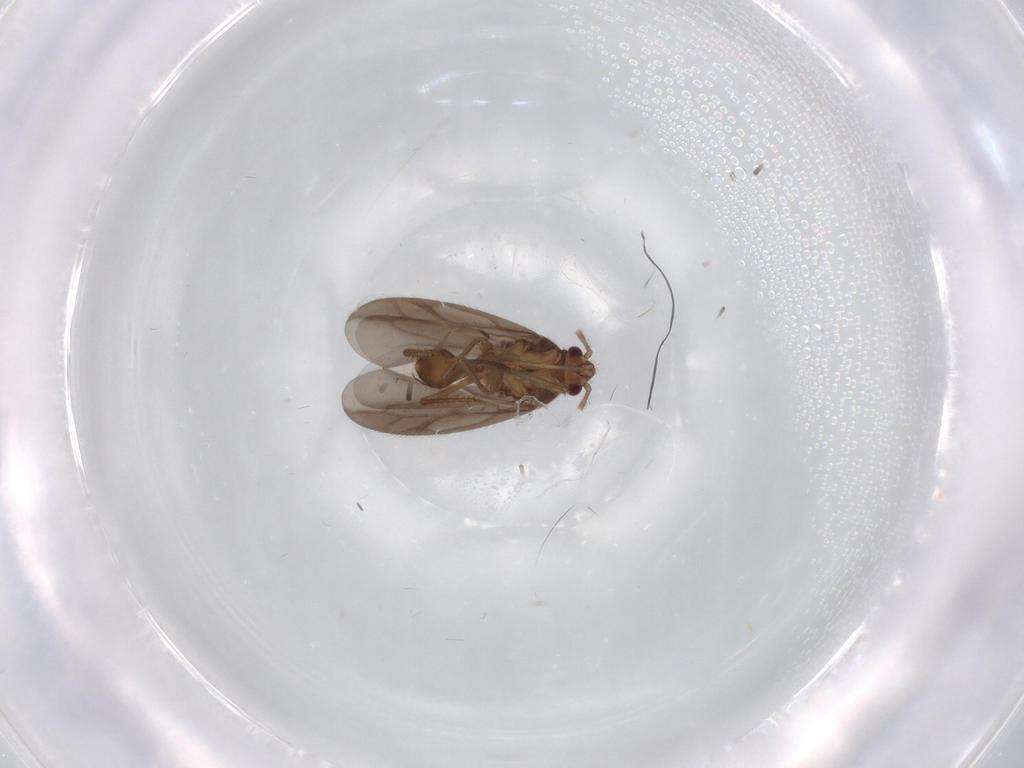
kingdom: Animalia
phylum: Arthropoda
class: Insecta
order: Hemiptera
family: Ceratocombidae
